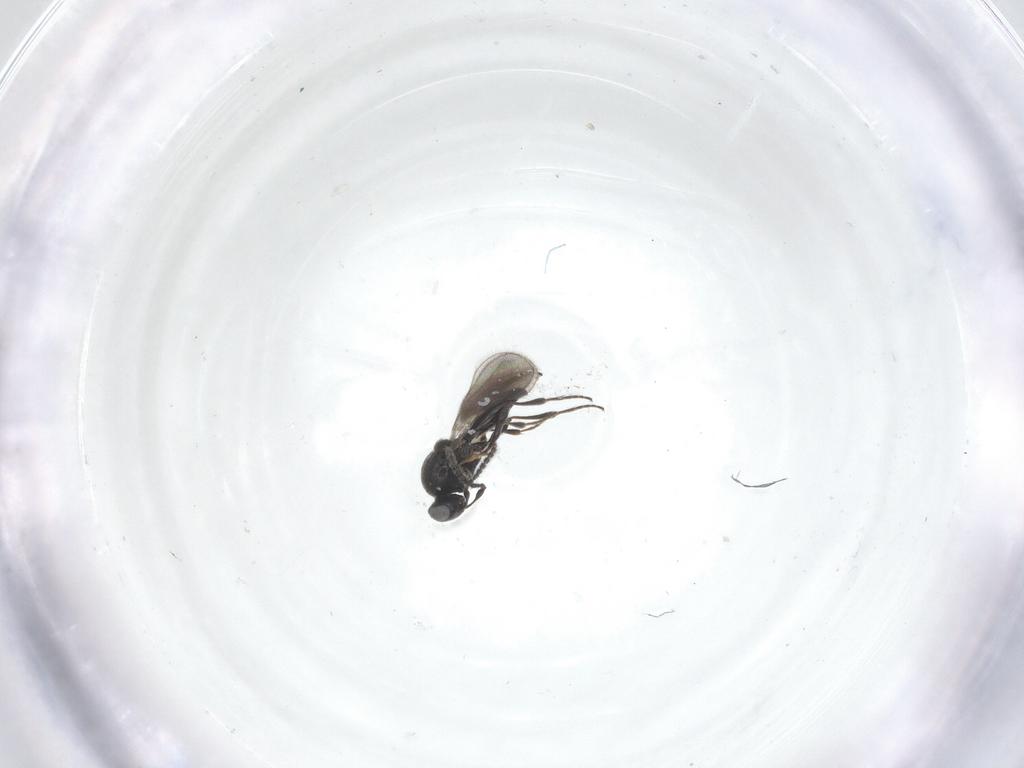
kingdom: Animalia
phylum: Arthropoda
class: Insecta
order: Hymenoptera
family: Platygastridae
